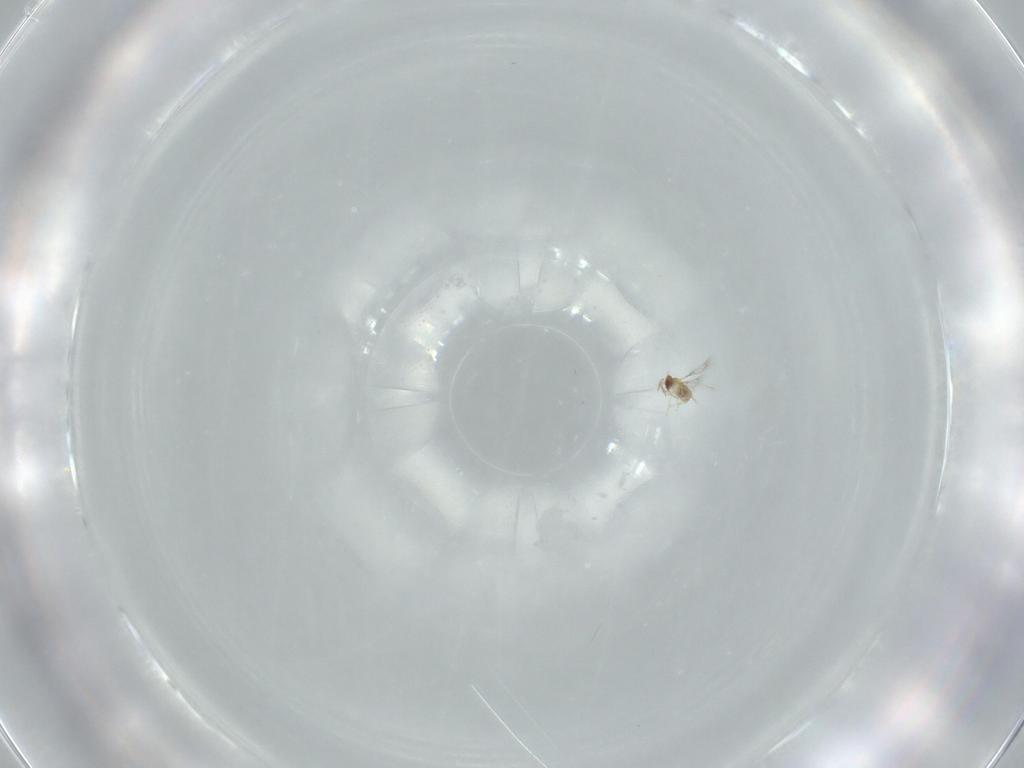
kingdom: Animalia
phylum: Arthropoda
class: Insecta
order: Hymenoptera
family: Trichogrammatidae
